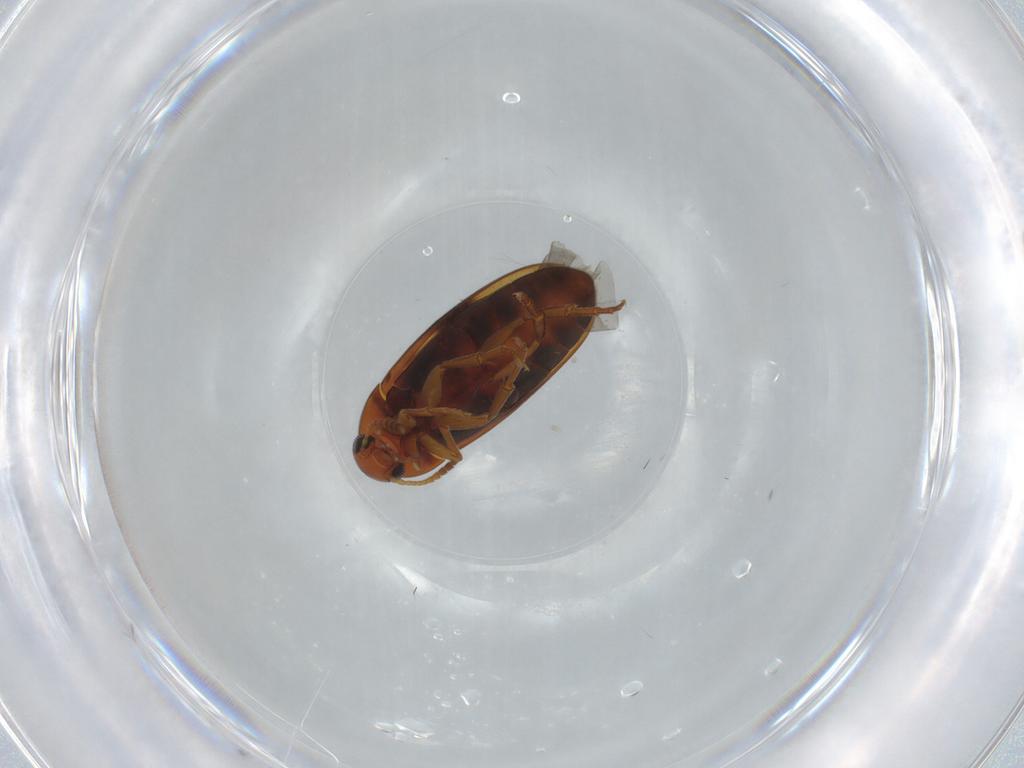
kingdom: Animalia
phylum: Arthropoda
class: Insecta
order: Coleoptera
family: Scraptiidae
